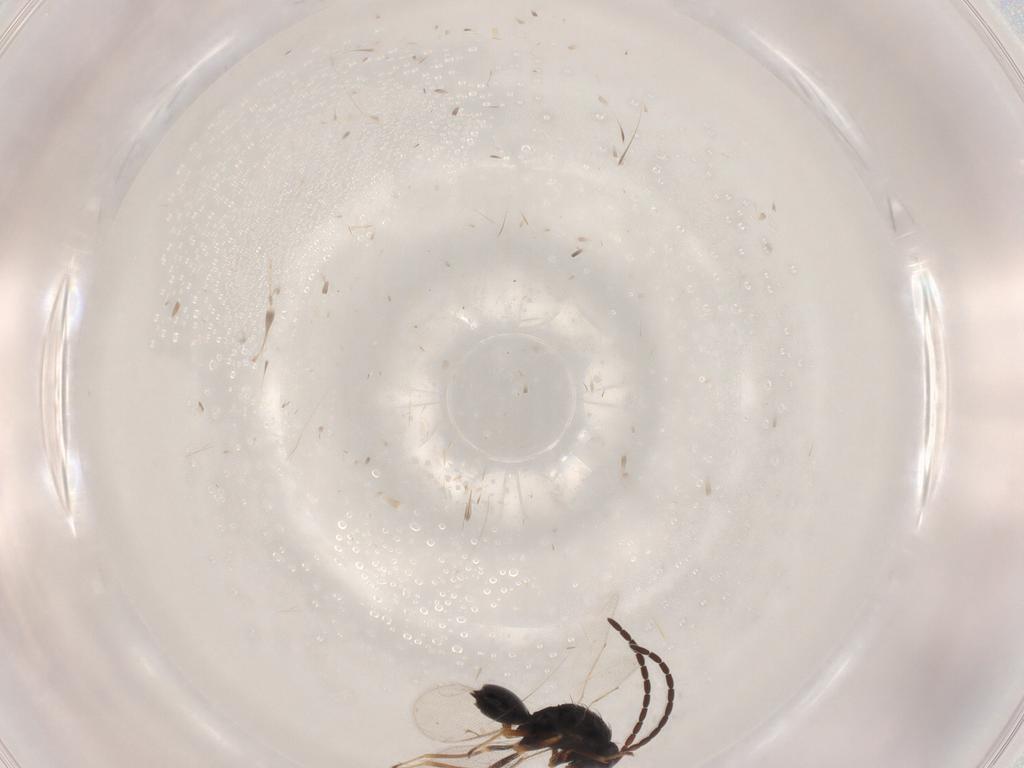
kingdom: Animalia
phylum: Arthropoda
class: Insecta
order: Hymenoptera
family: Diparidae
